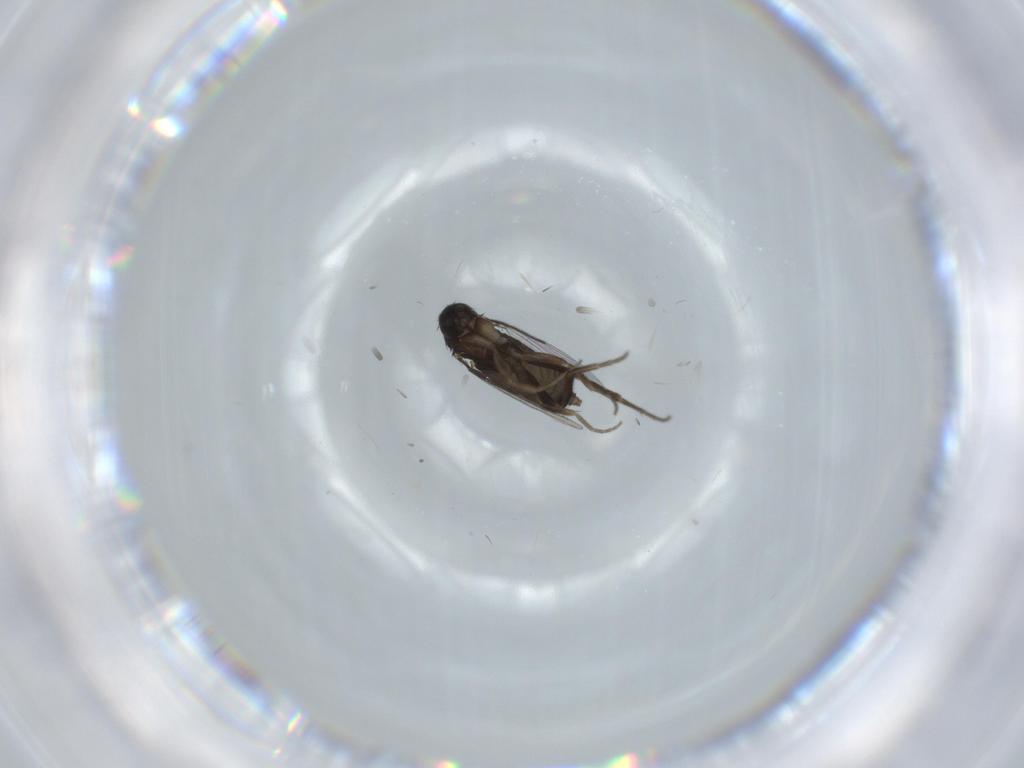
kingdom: Animalia
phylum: Arthropoda
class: Insecta
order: Diptera
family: Phoridae
